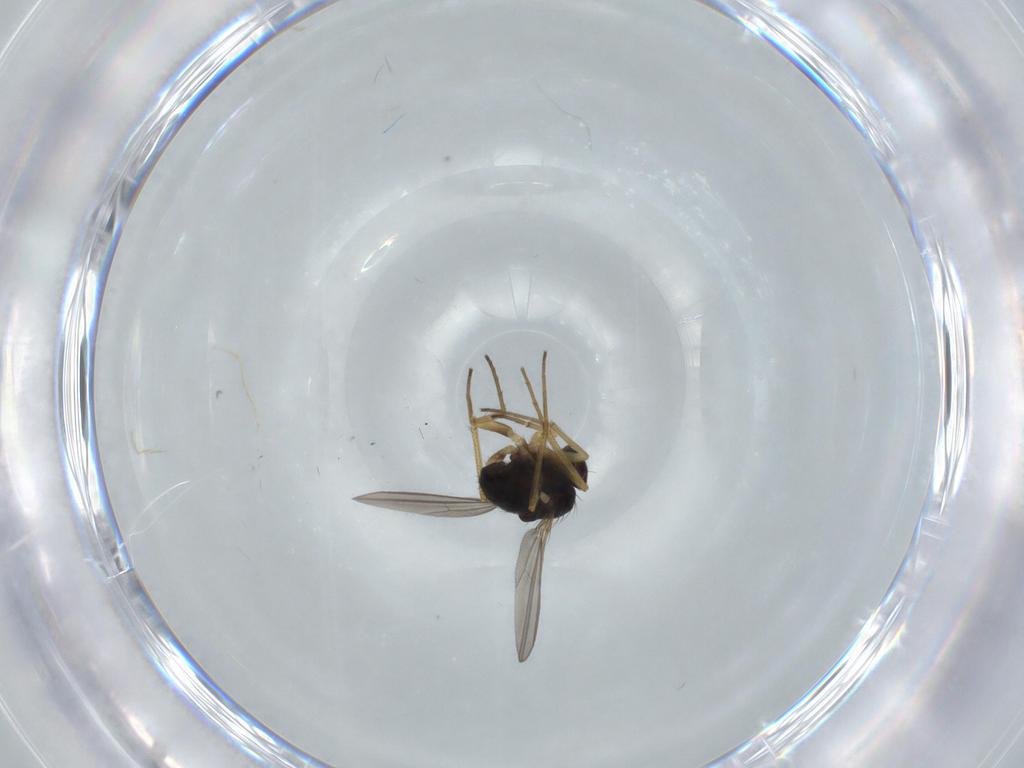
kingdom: Animalia
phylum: Arthropoda
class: Insecta
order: Diptera
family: Dolichopodidae
